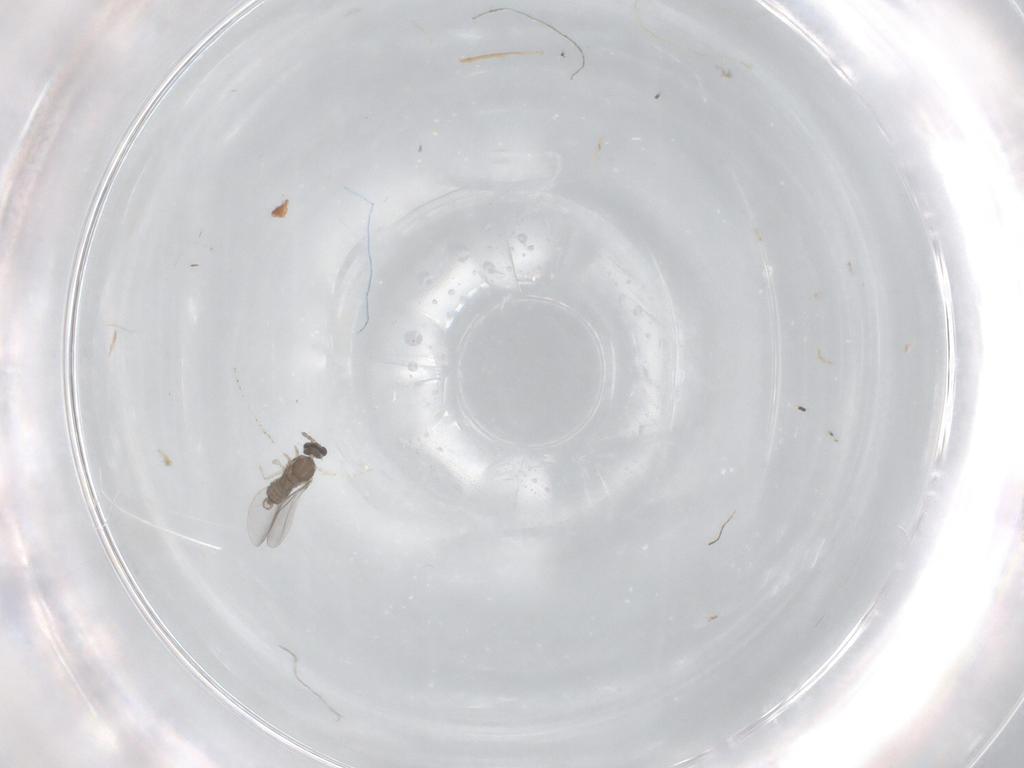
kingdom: Animalia
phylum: Arthropoda
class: Insecta
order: Diptera
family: Cecidomyiidae
